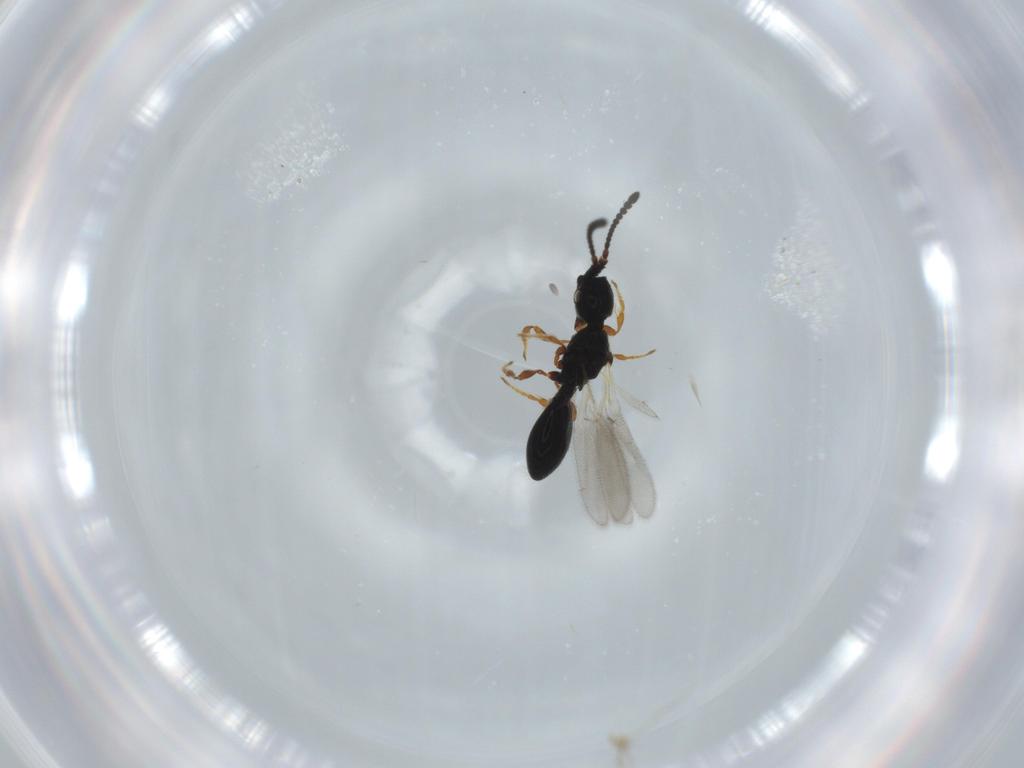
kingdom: Animalia
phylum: Arthropoda
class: Insecta
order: Hymenoptera
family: Diapriidae
